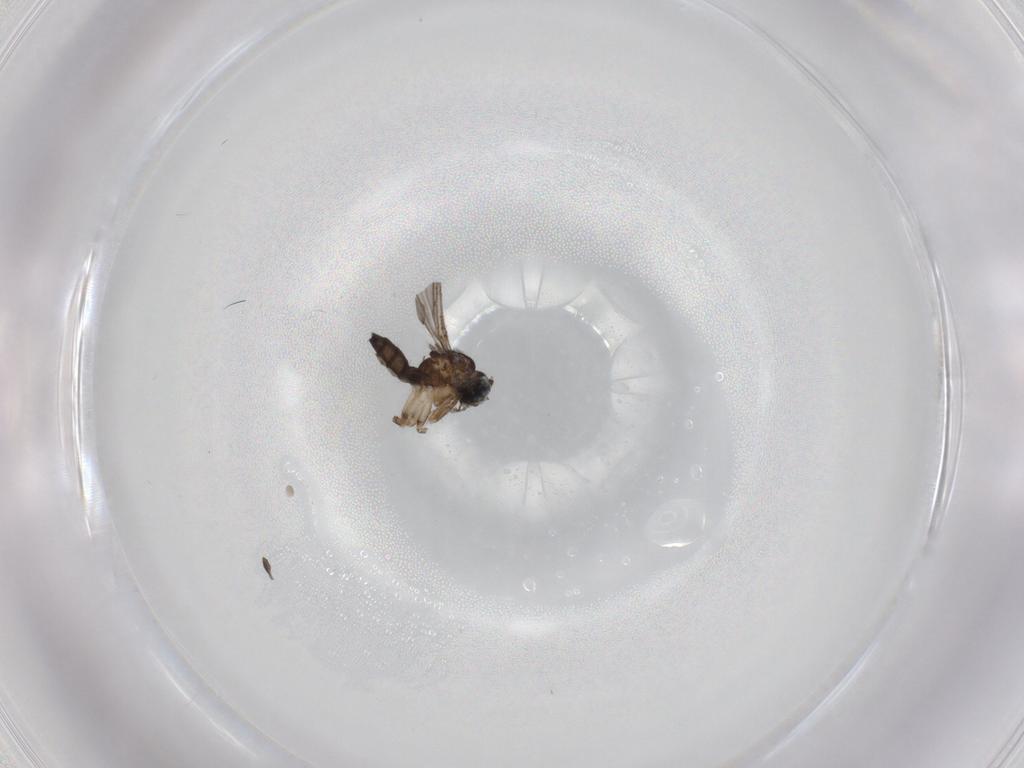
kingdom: Animalia
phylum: Arthropoda
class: Insecta
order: Diptera
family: Sciaridae
